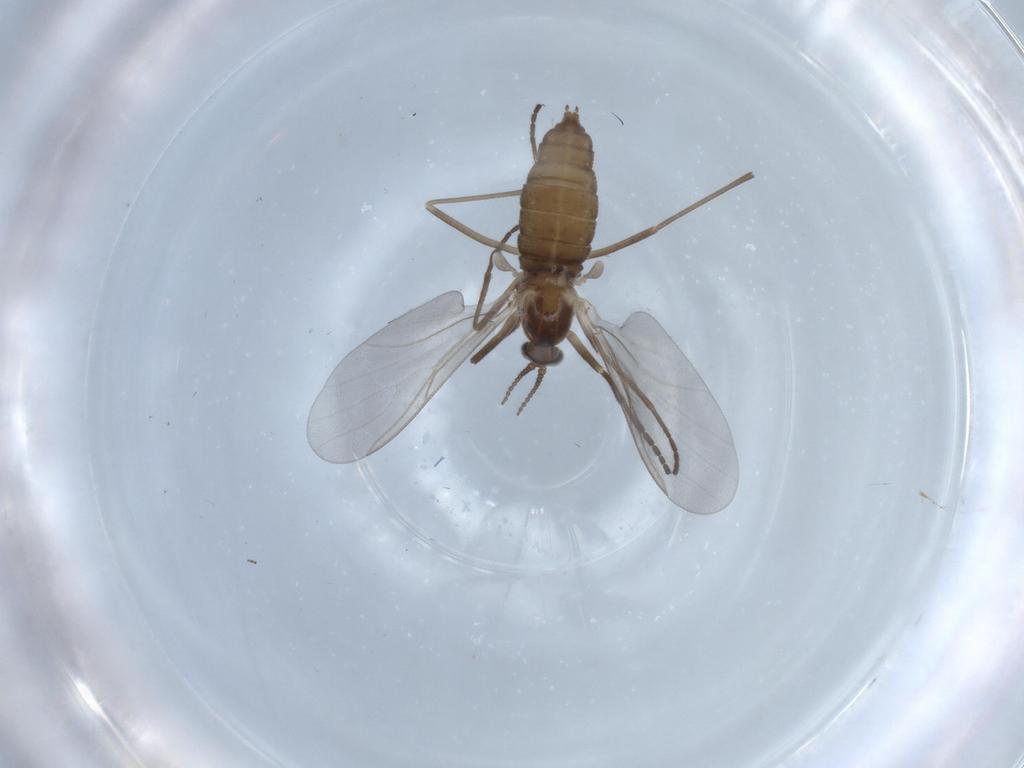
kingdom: Animalia
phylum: Arthropoda
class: Insecta
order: Diptera
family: Cecidomyiidae
